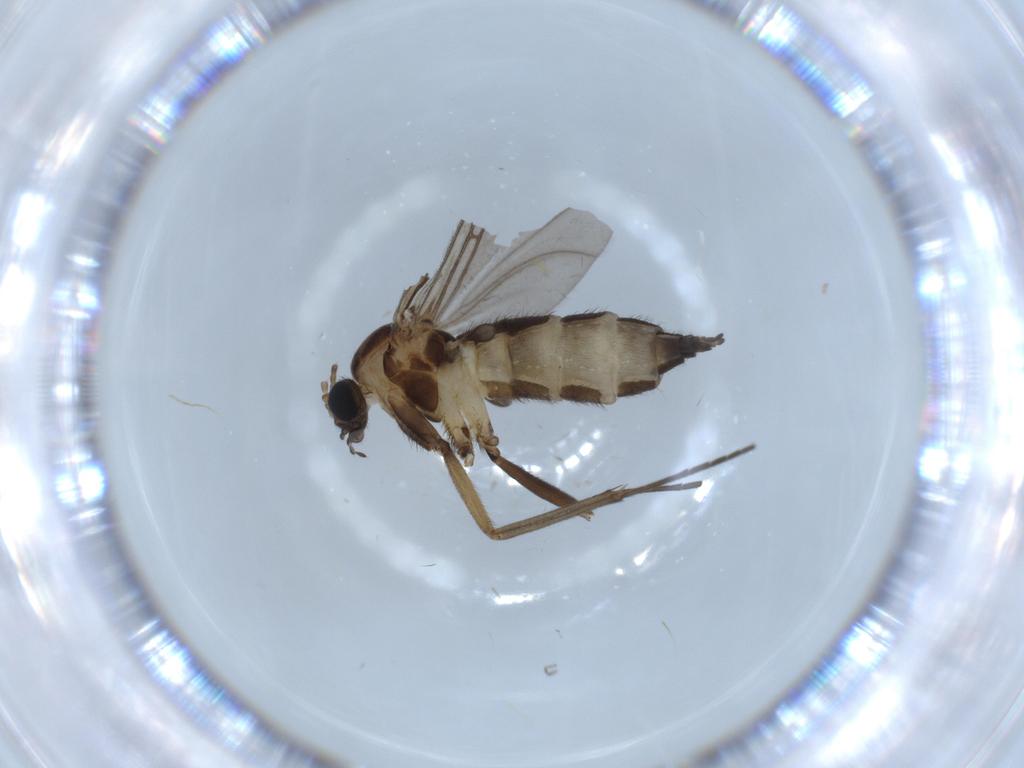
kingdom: Animalia
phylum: Arthropoda
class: Insecta
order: Diptera
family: Sciaridae
